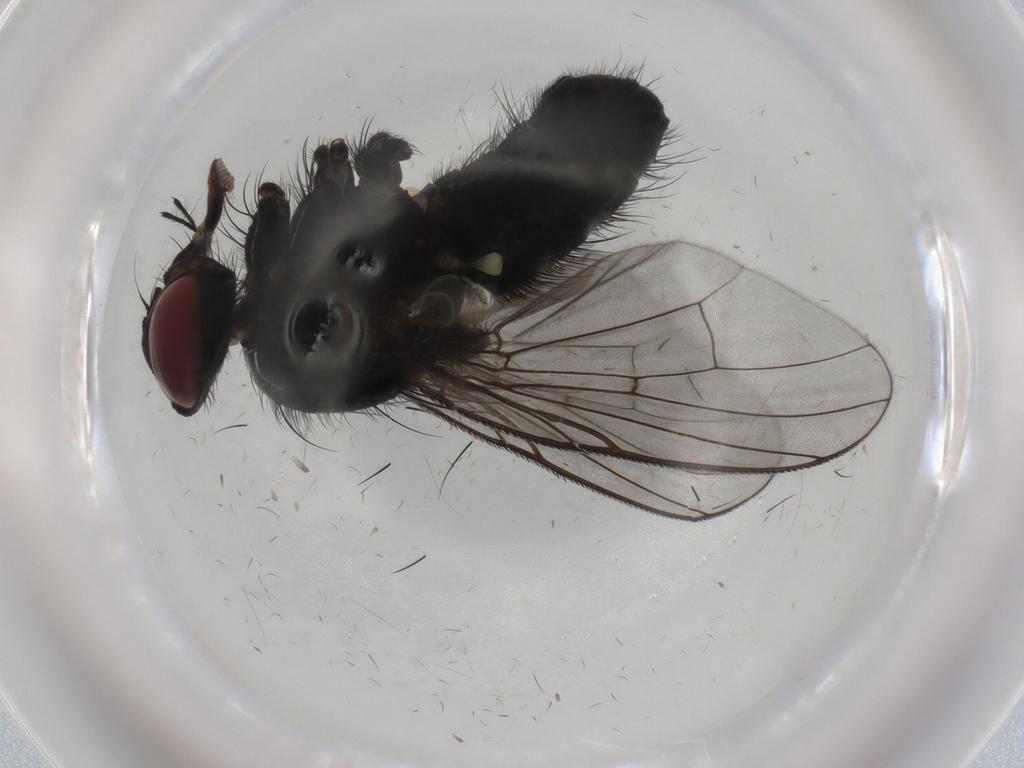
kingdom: Animalia
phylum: Arthropoda
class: Insecta
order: Diptera
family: Muscidae
